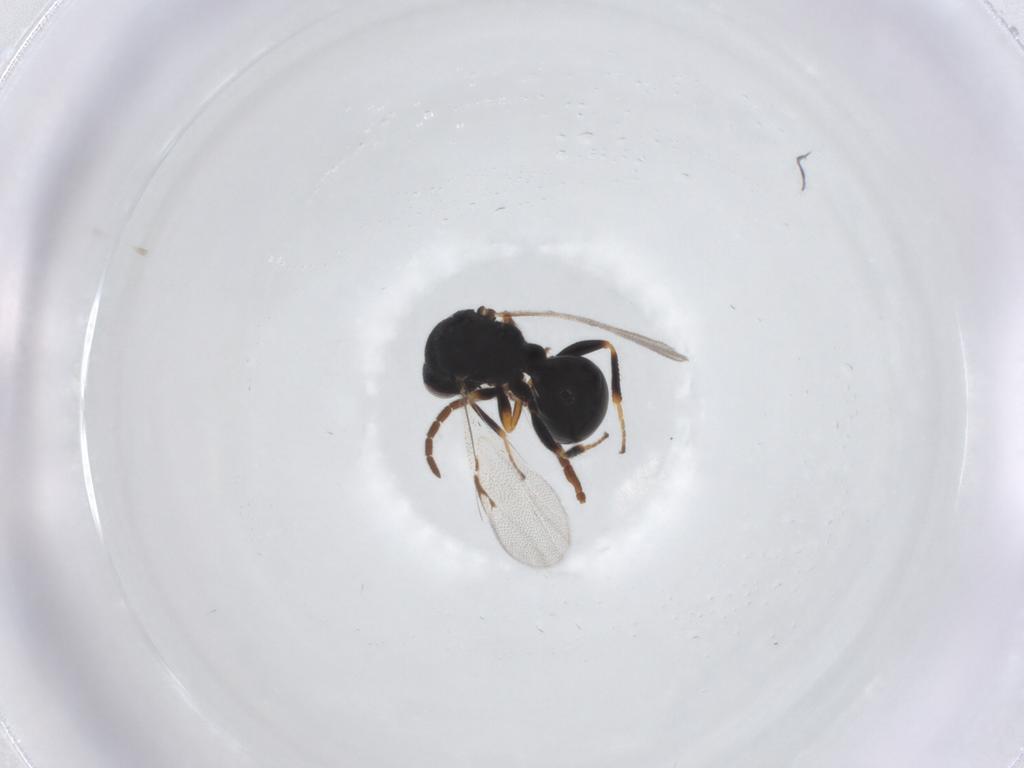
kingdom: Animalia
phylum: Arthropoda
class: Insecta
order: Hymenoptera
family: Eurytomidae
